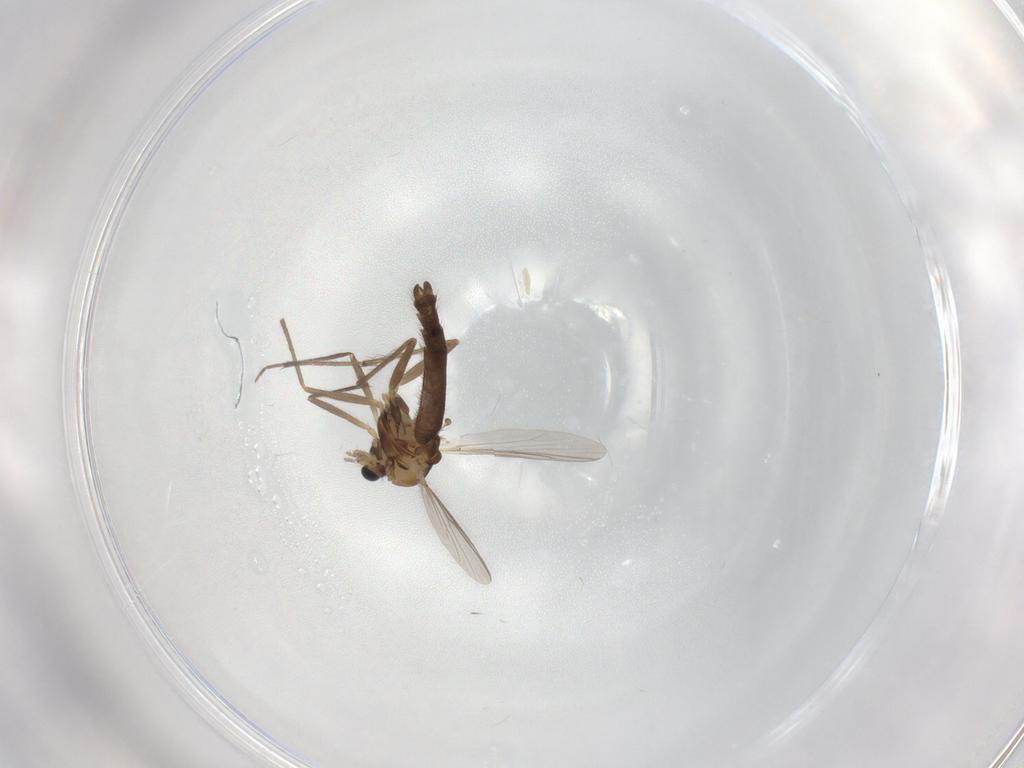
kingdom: Animalia
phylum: Arthropoda
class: Insecta
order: Diptera
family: Chironomidae
